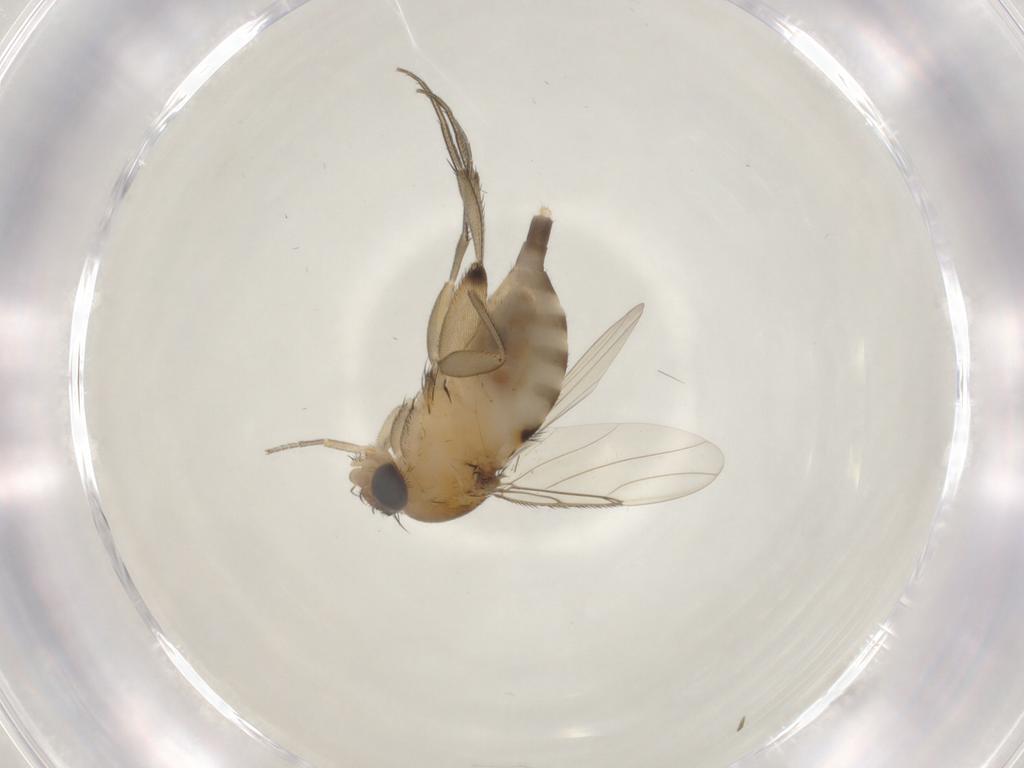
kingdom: Animalia
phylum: Arthropoda
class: Insecta
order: Diptera
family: Phoridae
